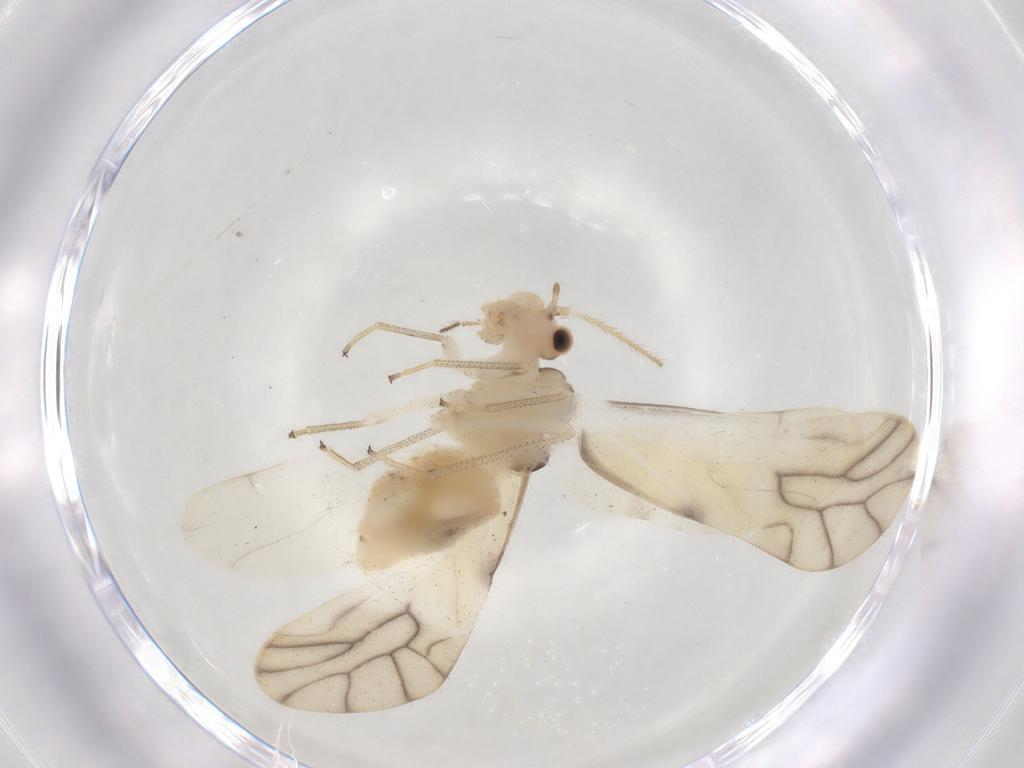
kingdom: Animalia
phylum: Arthropoda
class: Insecta
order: Psocodea
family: Caeciliusidae
